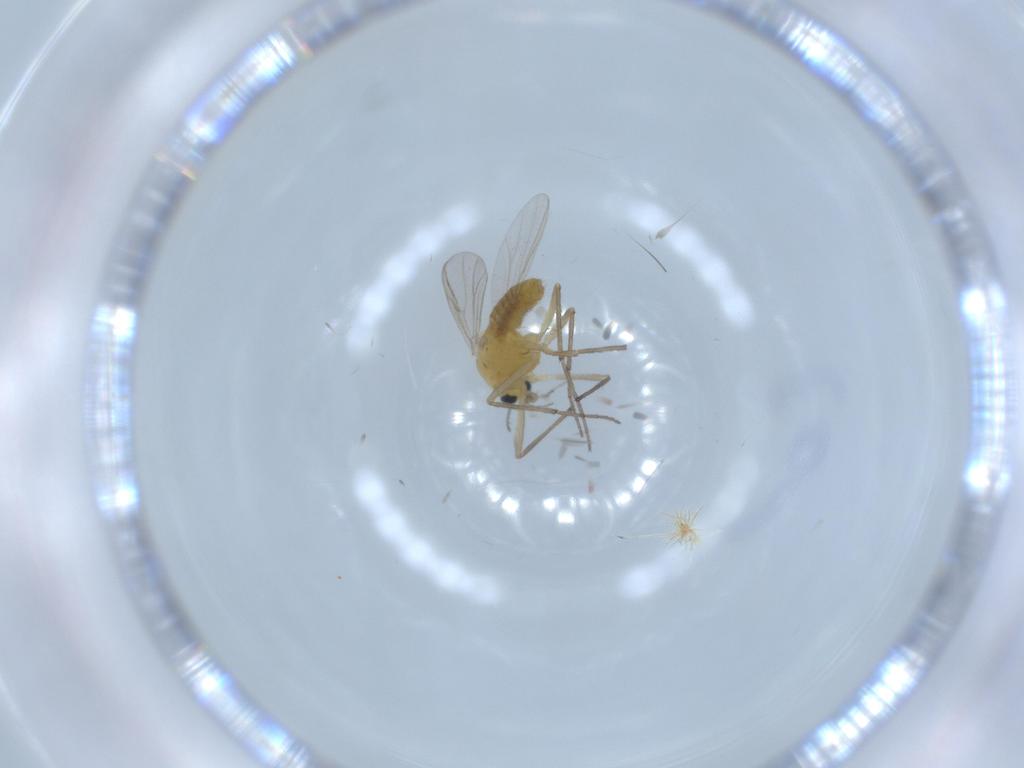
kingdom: Animalia
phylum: Arthropoda
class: Insecta
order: Diptera
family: Chironomidae
